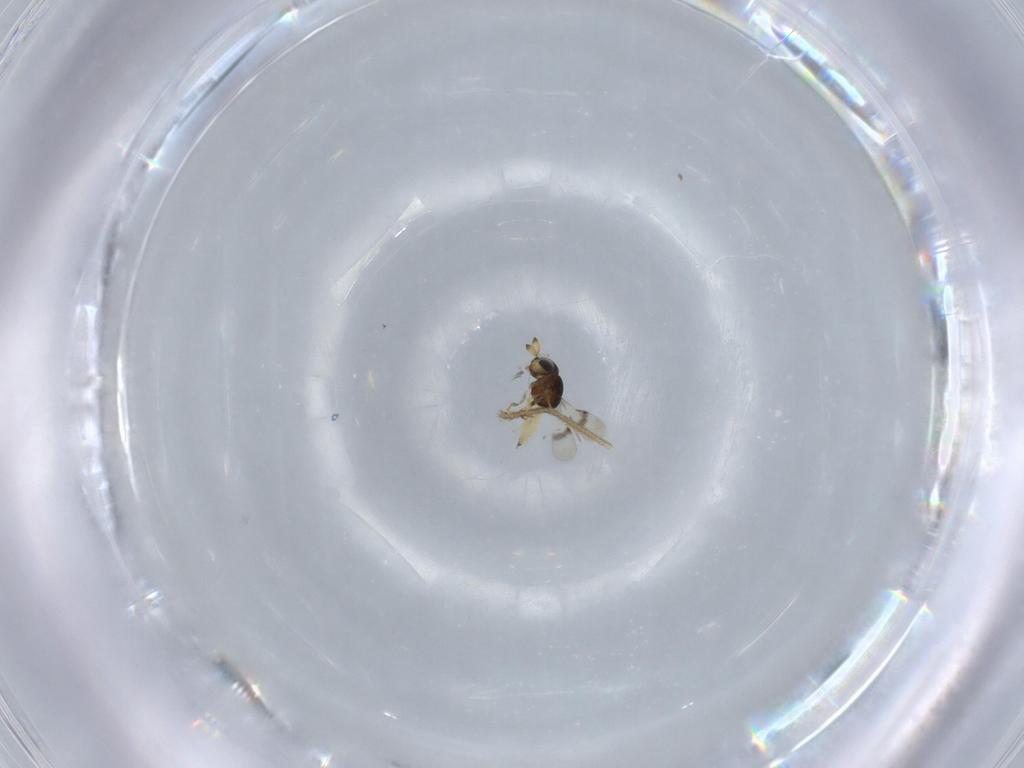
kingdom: Animalia
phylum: Arthropoda
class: Insecta
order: Hymenoptera
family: Scelionidae
